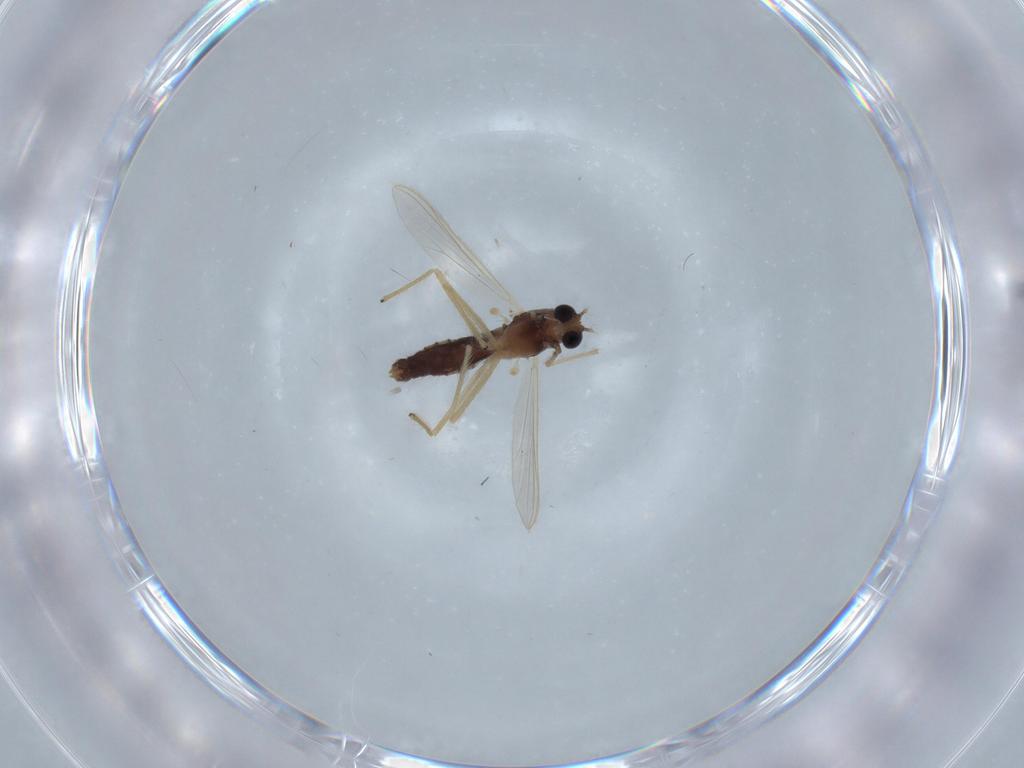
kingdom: Animalia
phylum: Arthropoda
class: Insecta
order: Diptera
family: Chironomidae
